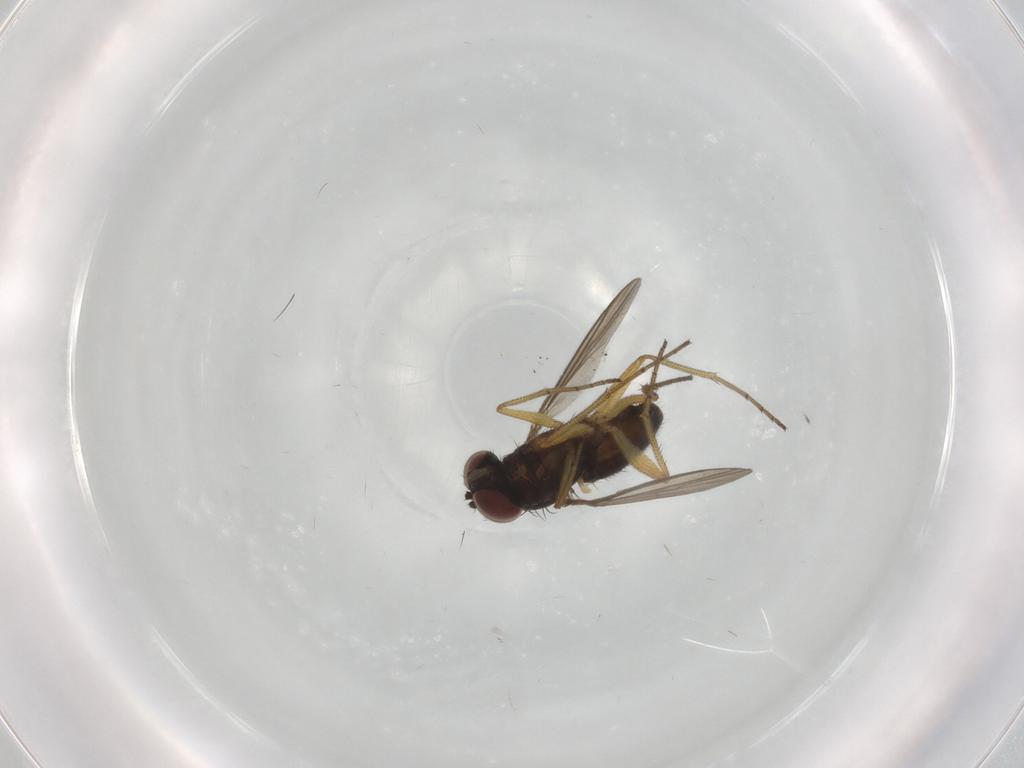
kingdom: Animalia
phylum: Arthropoda
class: Insecta
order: Diptera
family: Dolichopodidae
